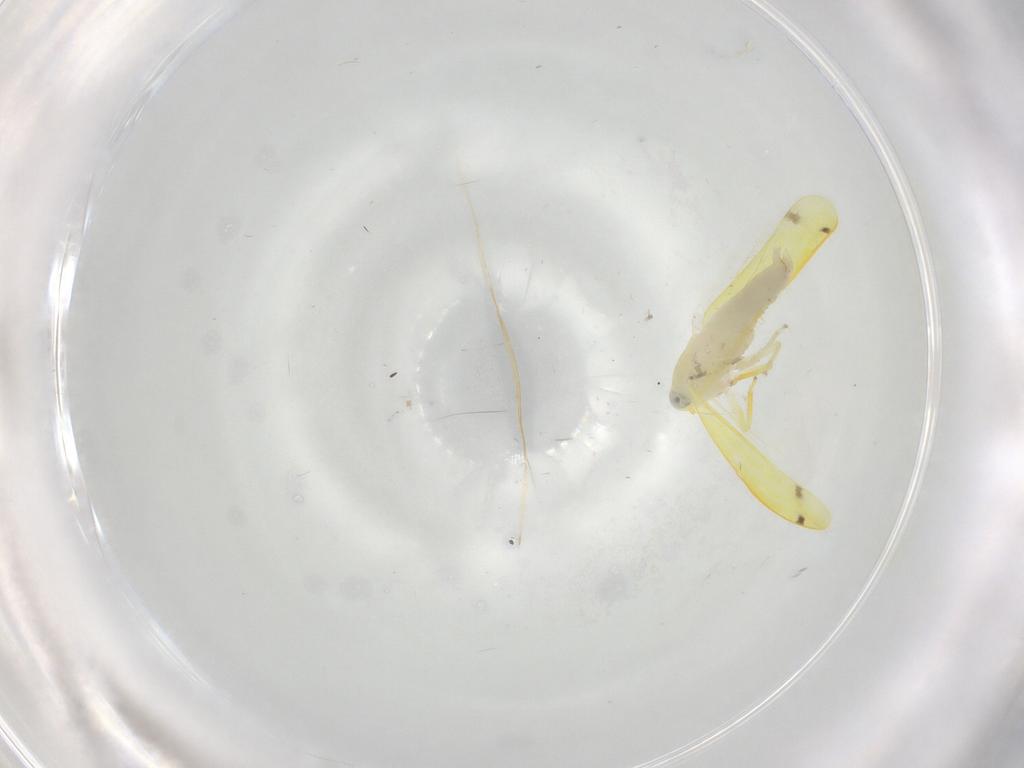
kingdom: Animalia
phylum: Arthropoda
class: Insecta
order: Hemiptera
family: Cicadellidae
